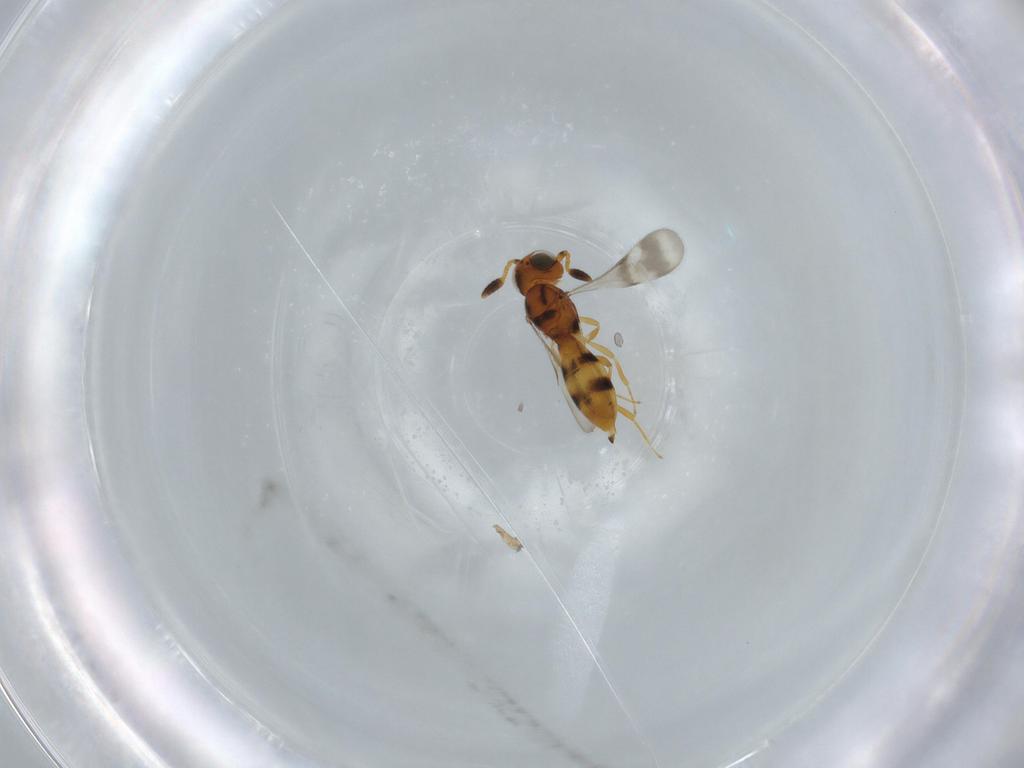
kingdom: Animalia
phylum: Arthropoda
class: Insecta
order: Hymenoptera
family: Scelionidae
